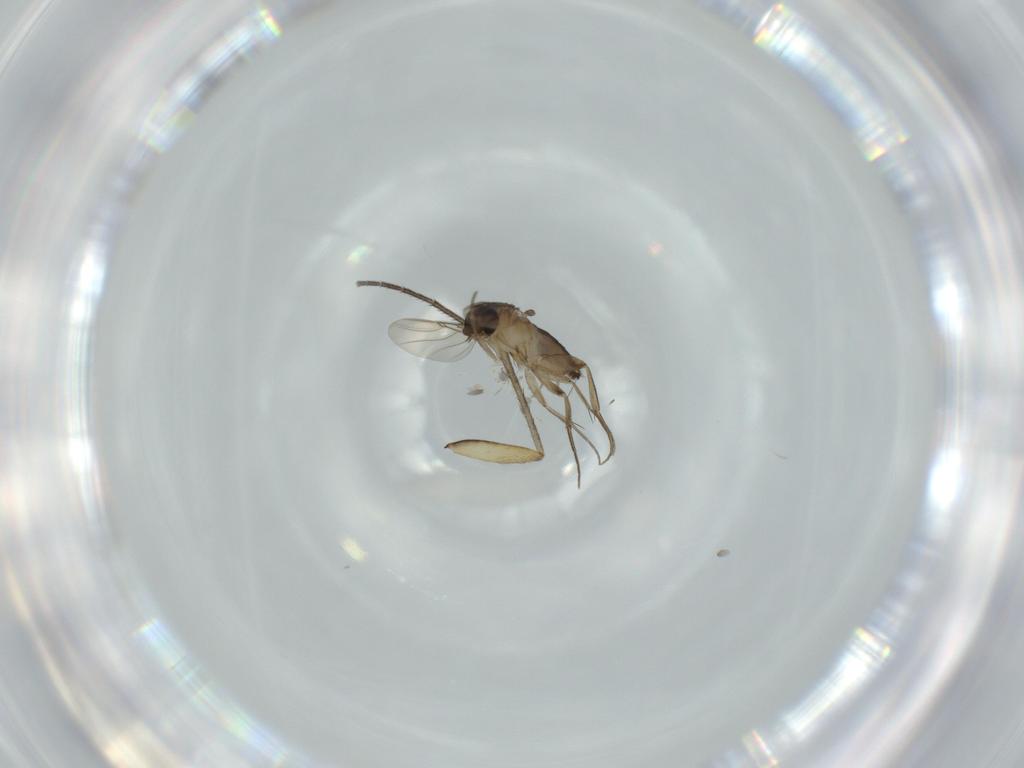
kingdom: Animalia
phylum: Arthropoda
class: Insecta
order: Diptera
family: Phoridae
